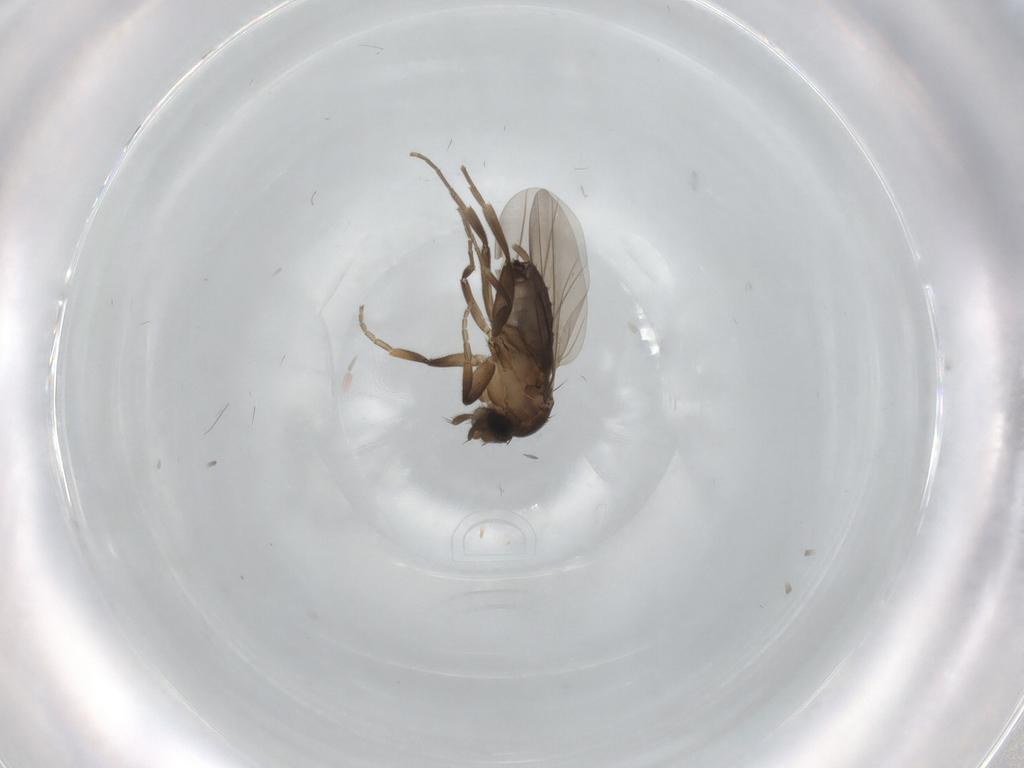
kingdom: Animalia
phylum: Arthropoda
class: Insecta
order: Diptera
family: Phoridae
